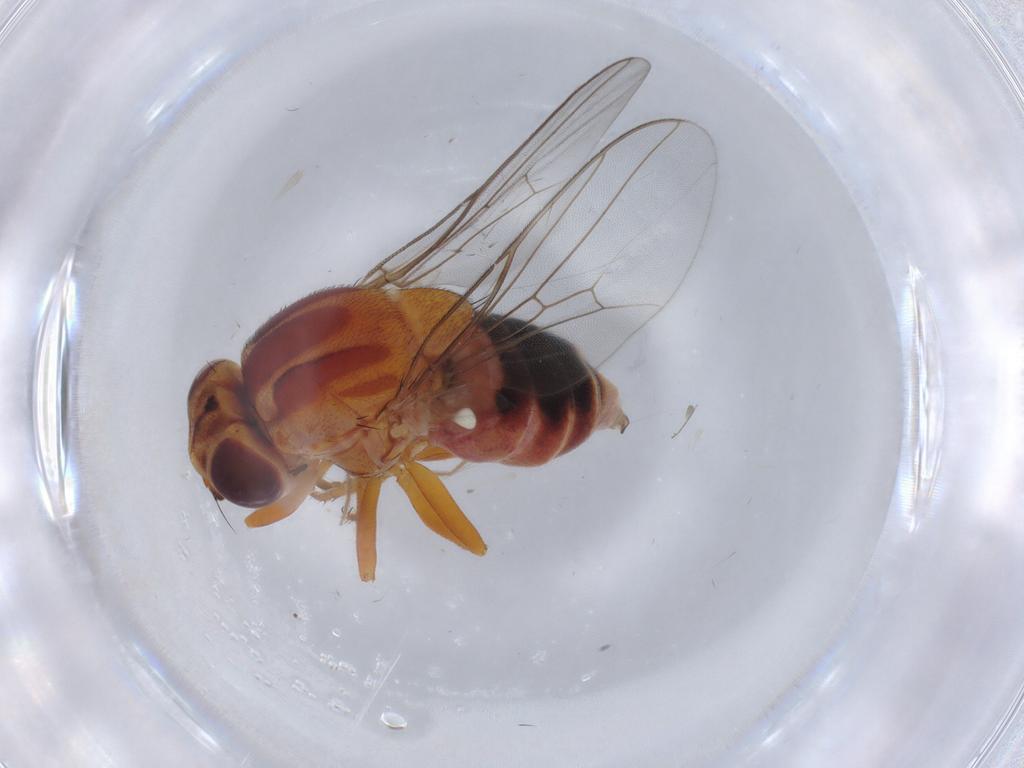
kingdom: Animalia
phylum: Arthropoda
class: Insecta
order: Diptera
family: Chloropidae
